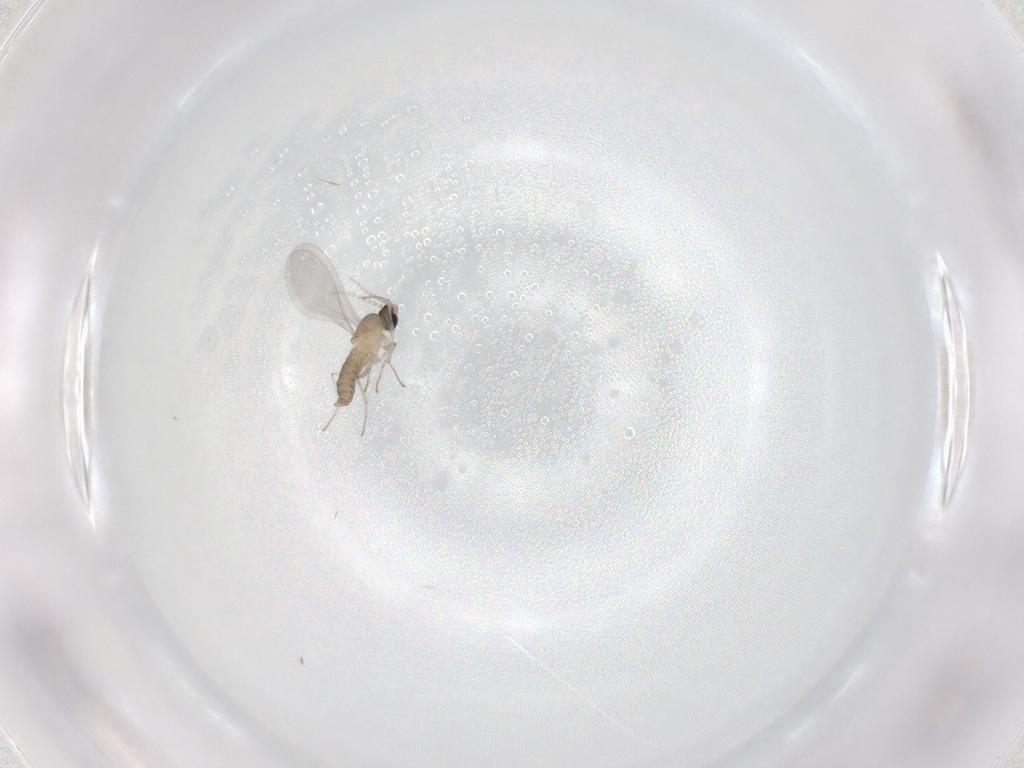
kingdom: Animalia
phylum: Arthropoda
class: Insecta
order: Diptera
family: Cecidomyiidae
